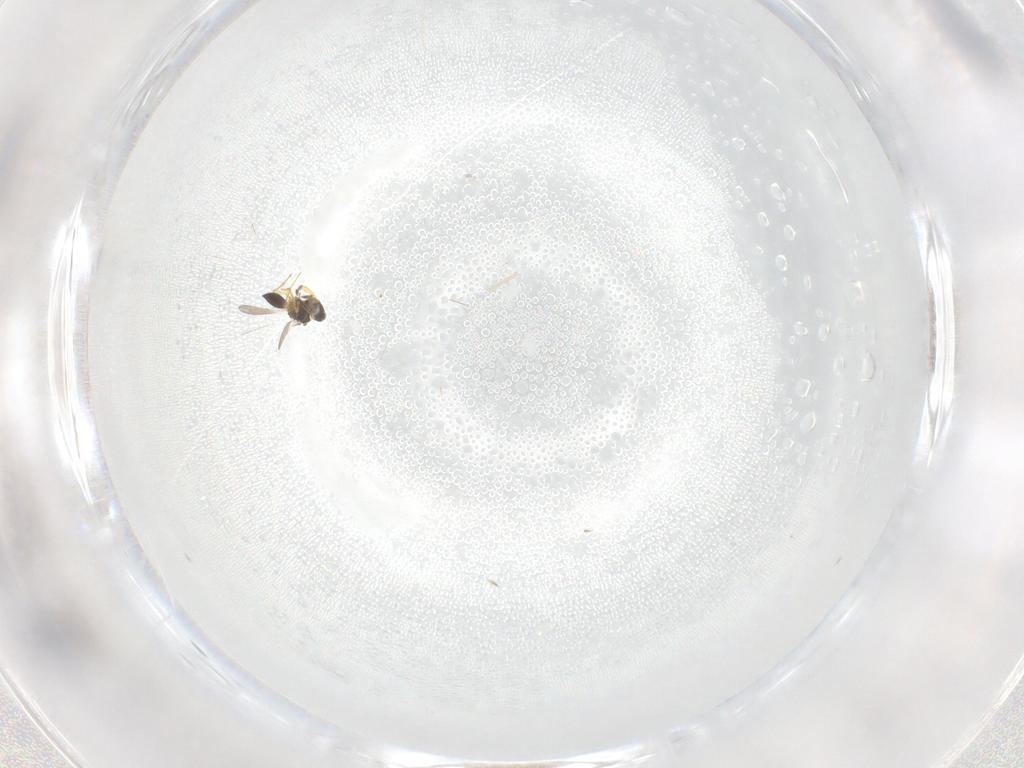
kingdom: Animalia
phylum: Arthropoda
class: Insecta
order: Hymenoptera
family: Platygastridae
